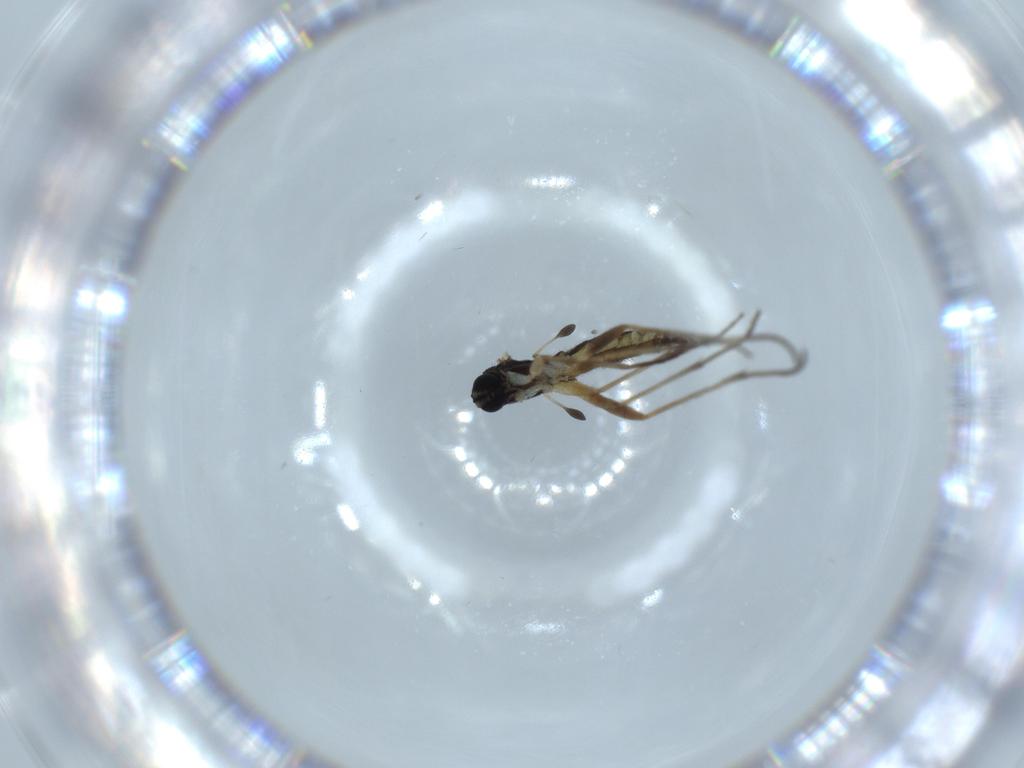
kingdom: Animalia
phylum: Arthropoda
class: Insecta
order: Diptera
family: Sciaridae
